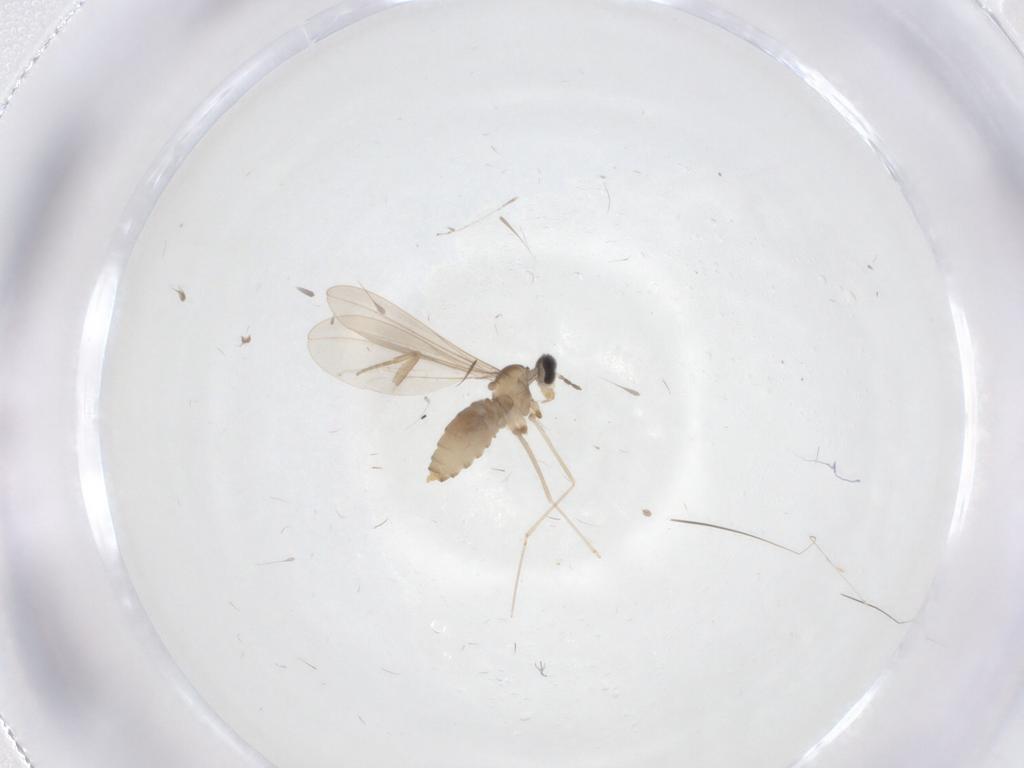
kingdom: Animalia
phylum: Arthropoda
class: Insecta
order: Diptera
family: Cecidomyiidae
